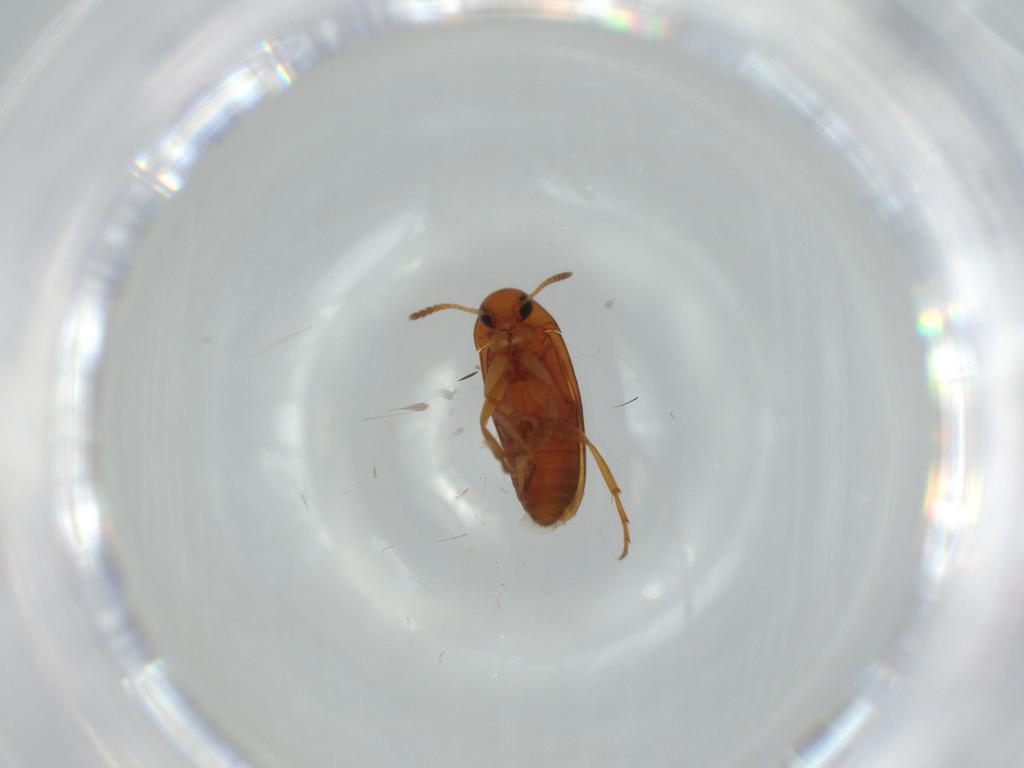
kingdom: Animalia
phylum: Arthropoda
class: Insecta
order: Coleoptera
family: Scraptiidae
